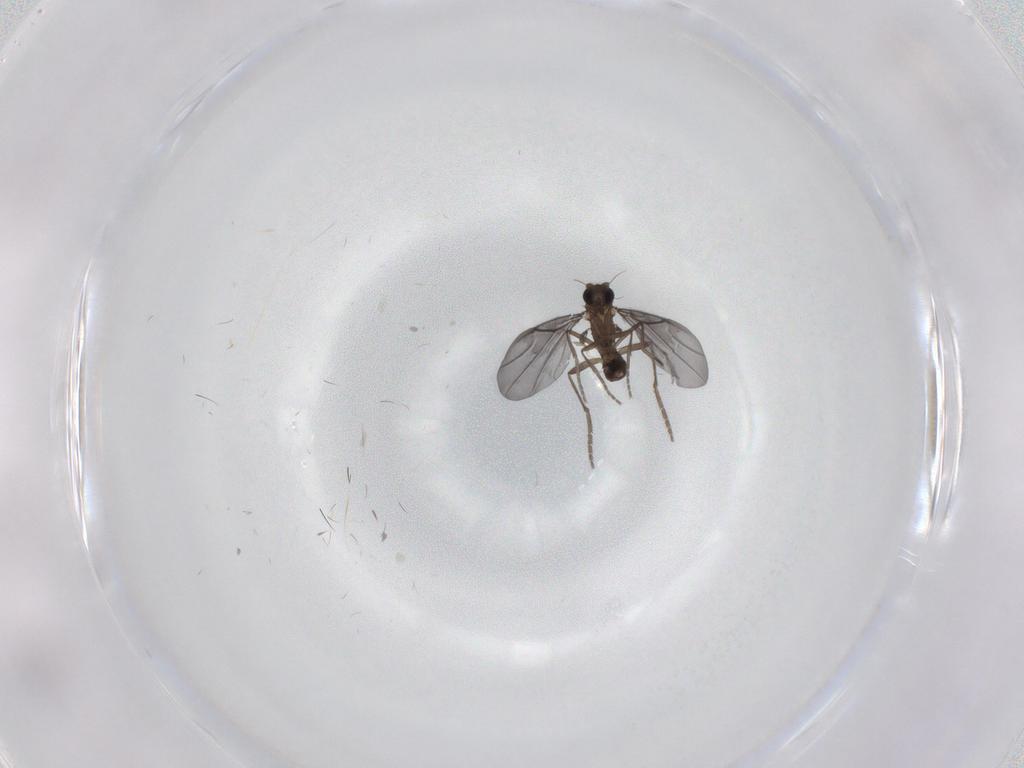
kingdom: Animalia
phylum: Arthropoda
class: Insecta
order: Diptera
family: Phoridae
